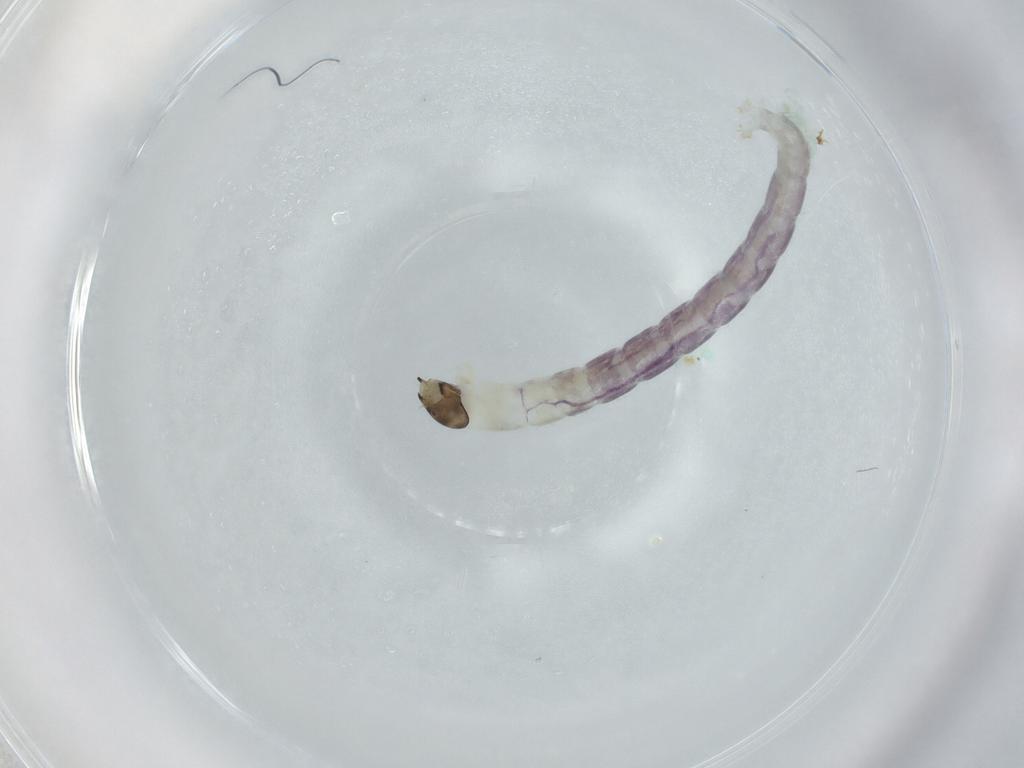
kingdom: Animalia
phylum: Arthropoda
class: Insecta
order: Diptera
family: Chironomidae
